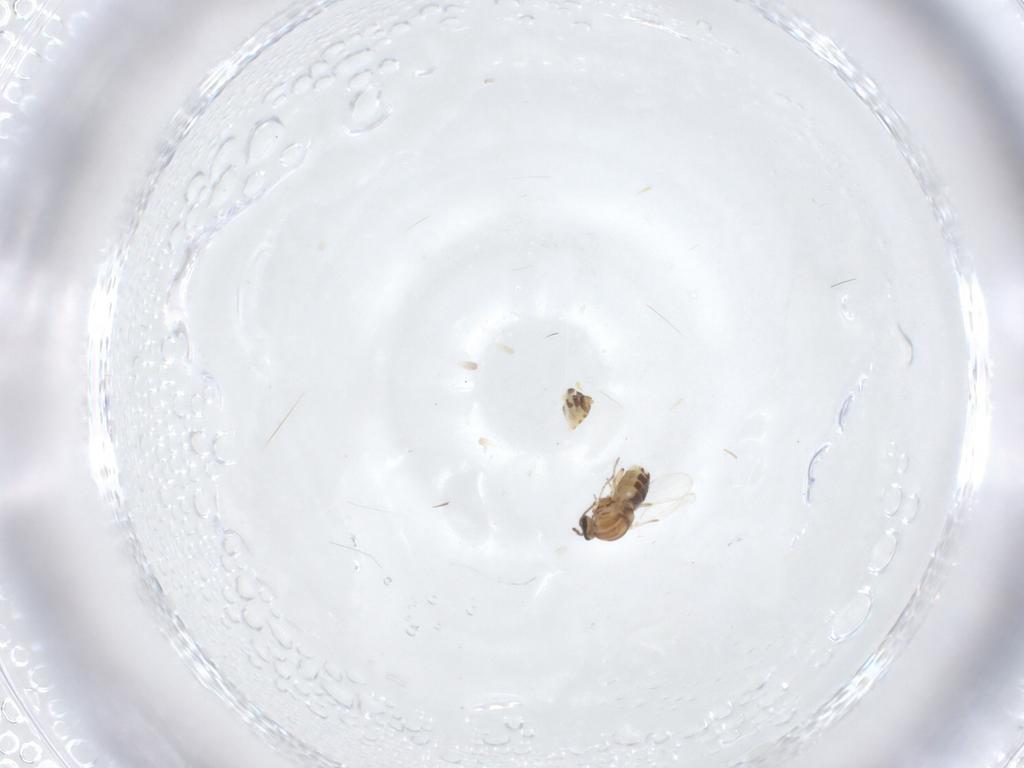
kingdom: Animalia
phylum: Arthropoda
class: Insecta
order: Diptera
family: Ceratopogonidae
